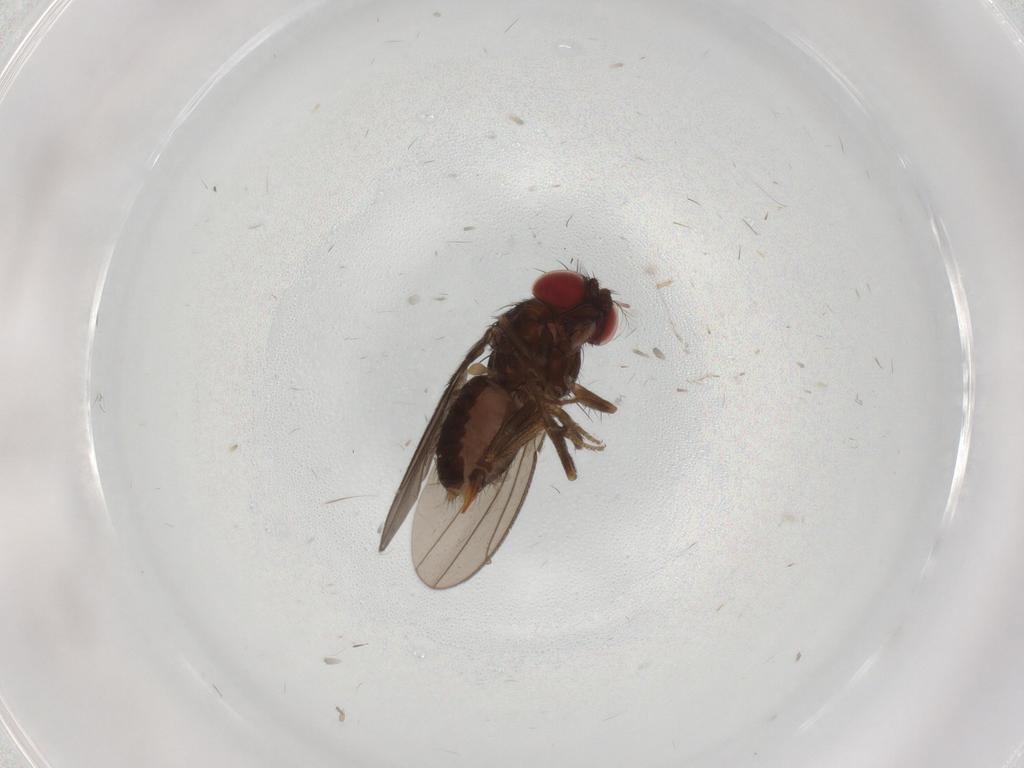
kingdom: Animalia
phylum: Arthropoda
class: Insecta
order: Diptera
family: Drosophilidae
